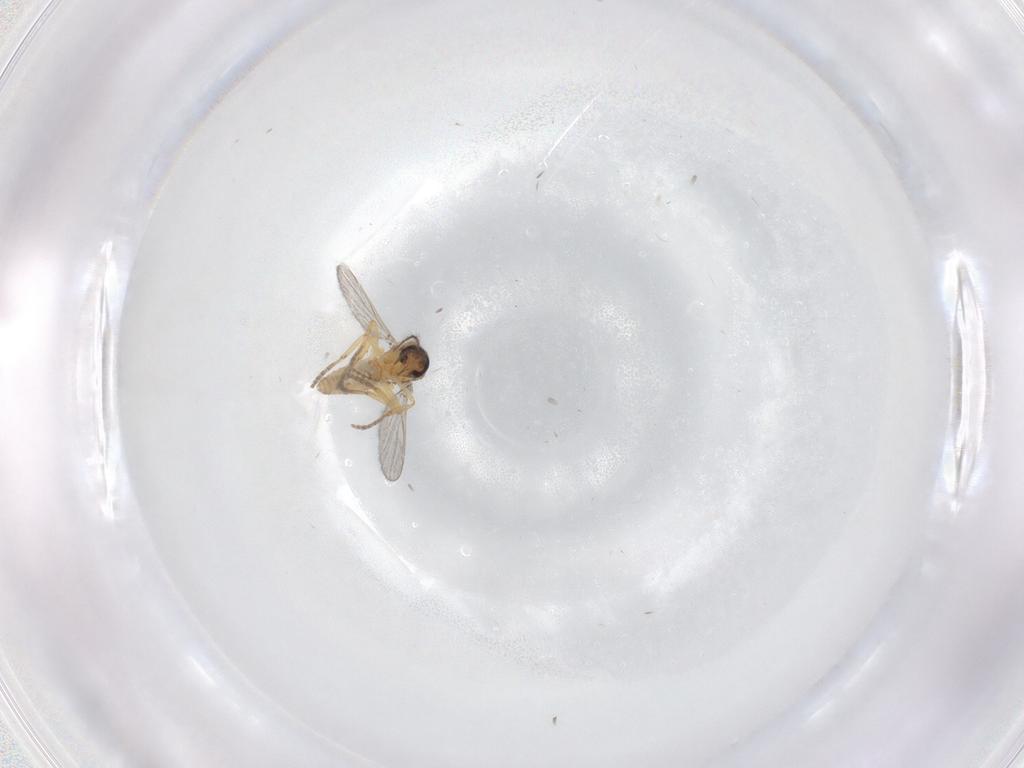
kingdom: Animalia
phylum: Arthropoda
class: Insecta
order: Diptera
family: Ceratopogonidae
